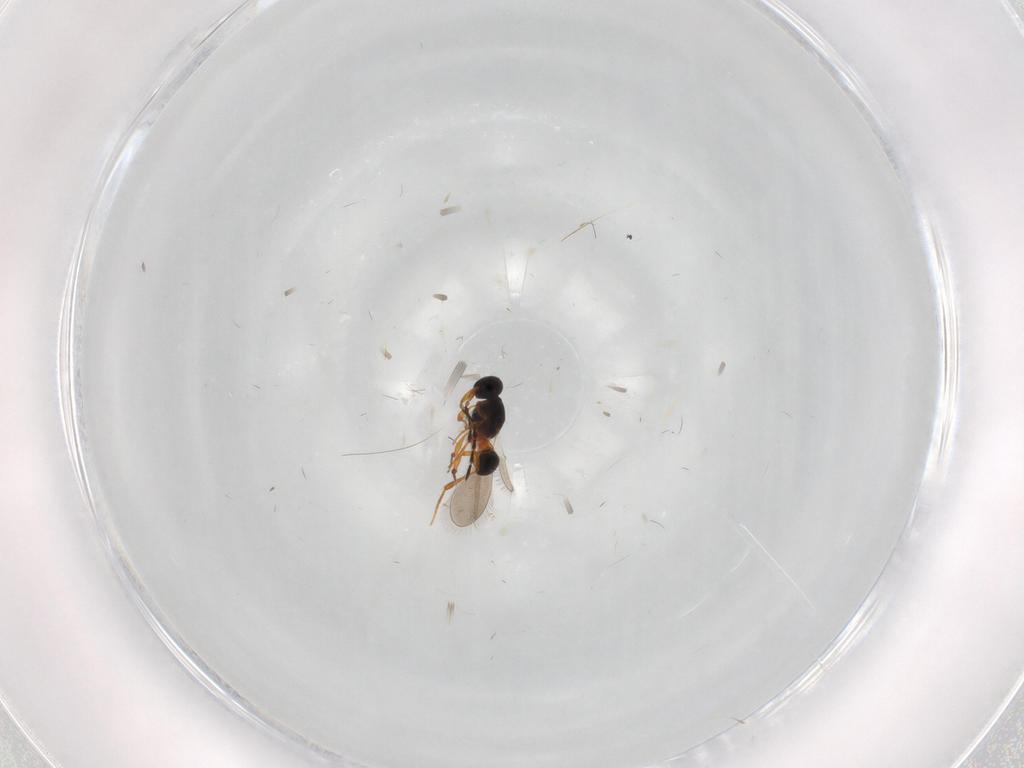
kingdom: Animalia
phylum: Arthropoda
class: Insecta
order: Hymenoptera
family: Platygastridae
